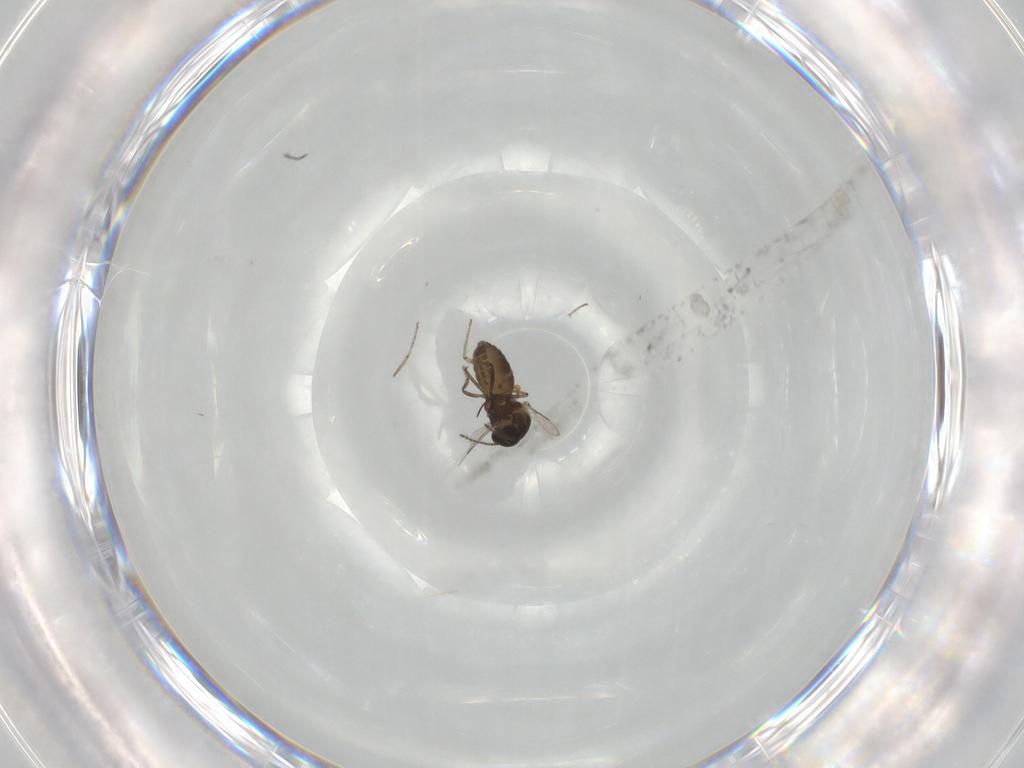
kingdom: Animalia
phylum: Arthropoda
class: Insecta
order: Diptera
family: Ceratopogonidae
